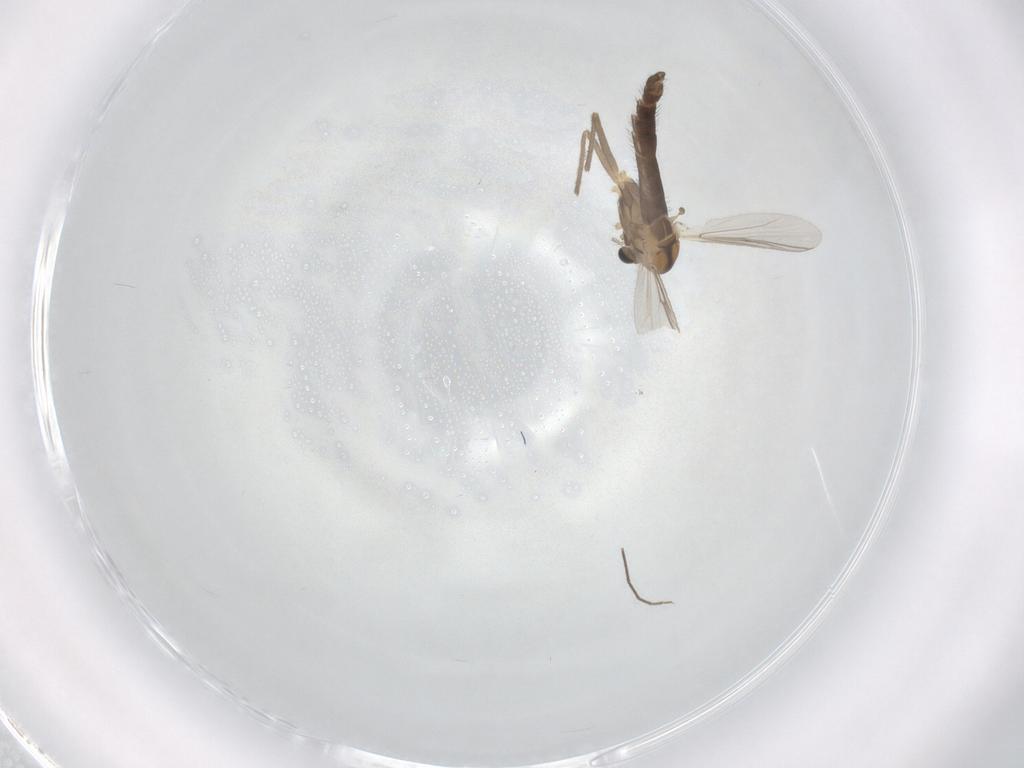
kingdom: Animalia
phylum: Arthropoda
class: Insecta
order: Diptera
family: Chironomidae
